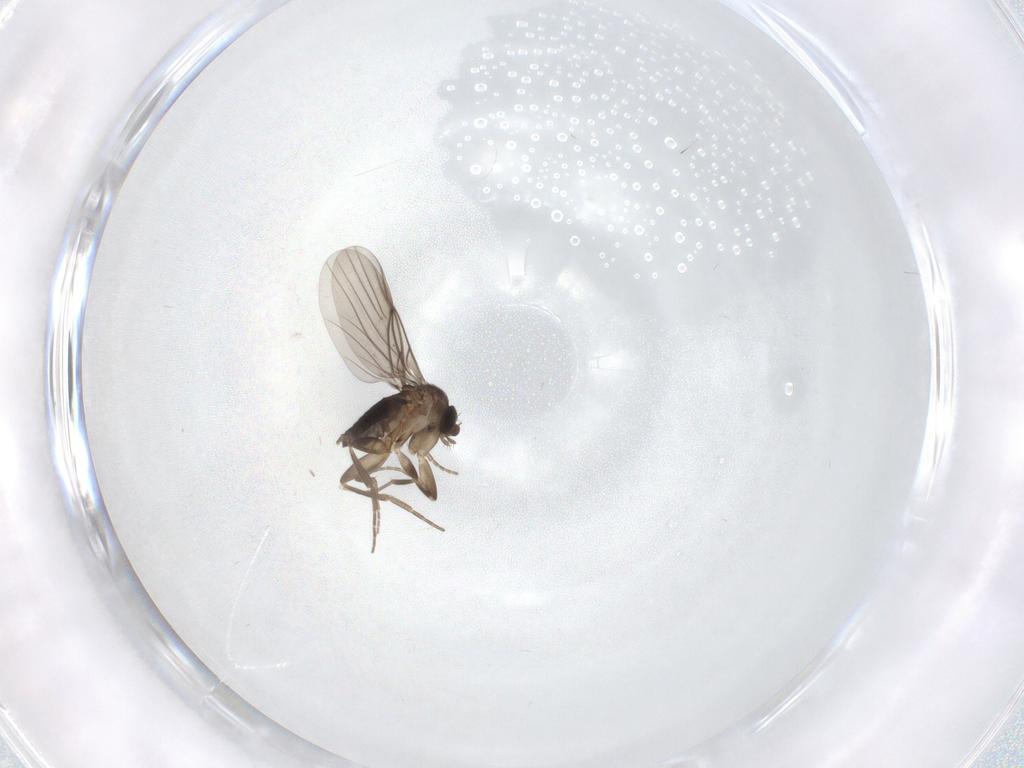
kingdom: Animalia
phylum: Arthropoda
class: Insecta
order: Diptera
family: Phoridae
